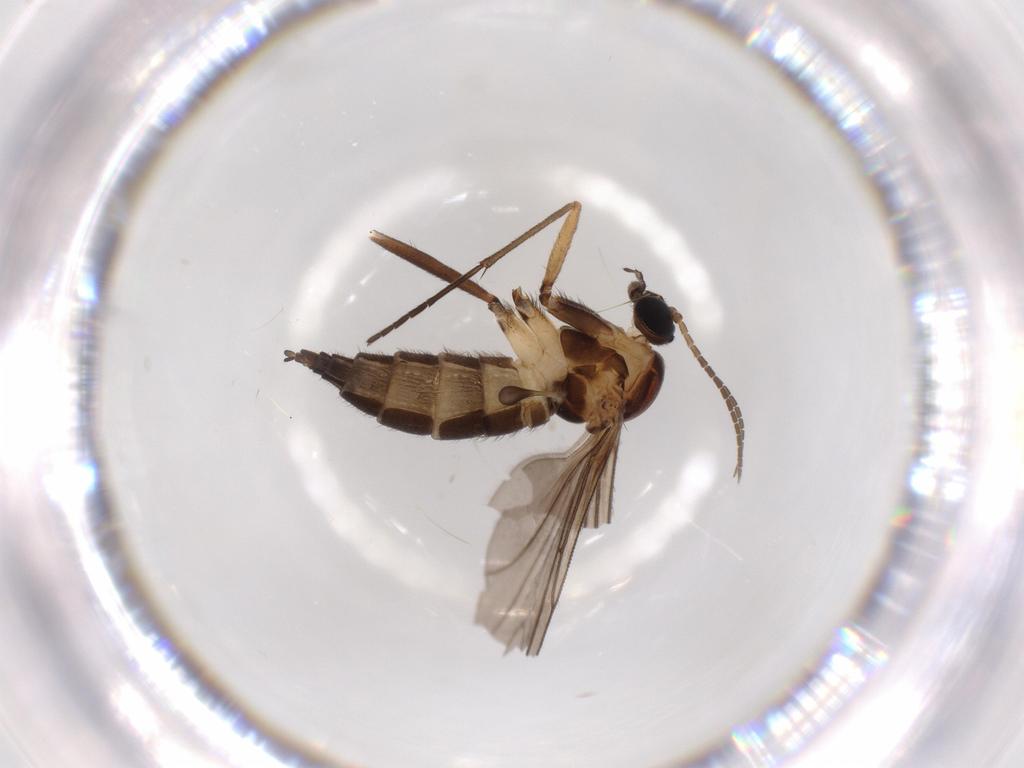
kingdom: Animalia
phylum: Arthropoda
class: Insecta
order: Diptera
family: Sciaridae
